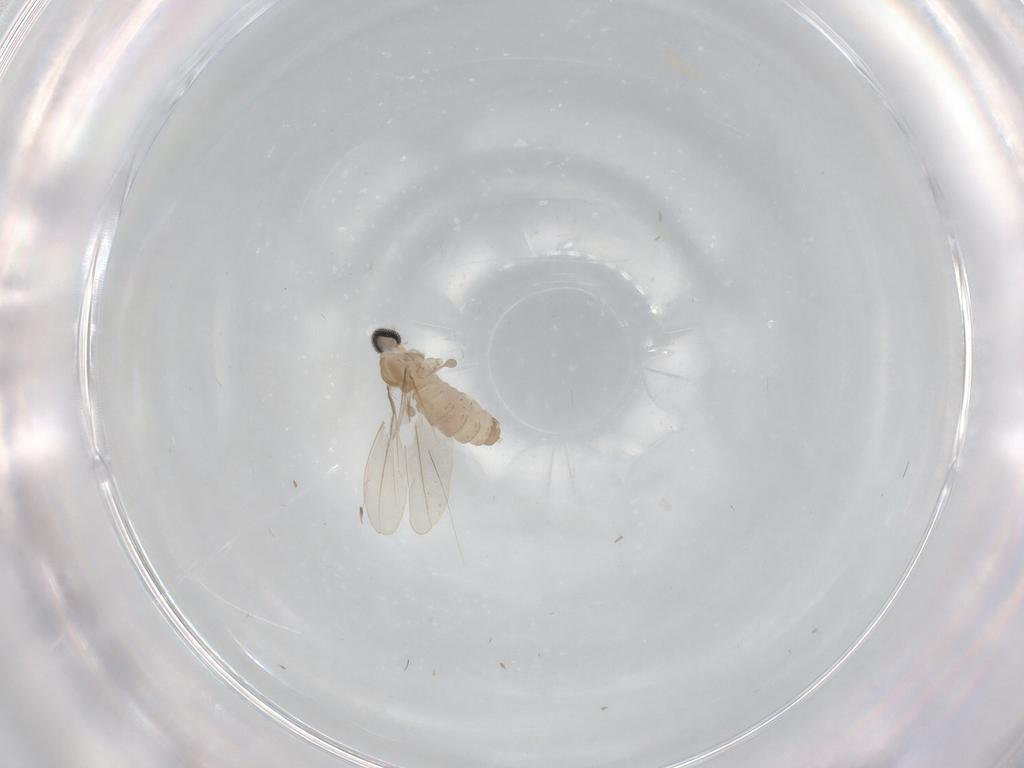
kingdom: Animalia
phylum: Arthropoda
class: Insecta
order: Diptera
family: Cecidomyiidae
